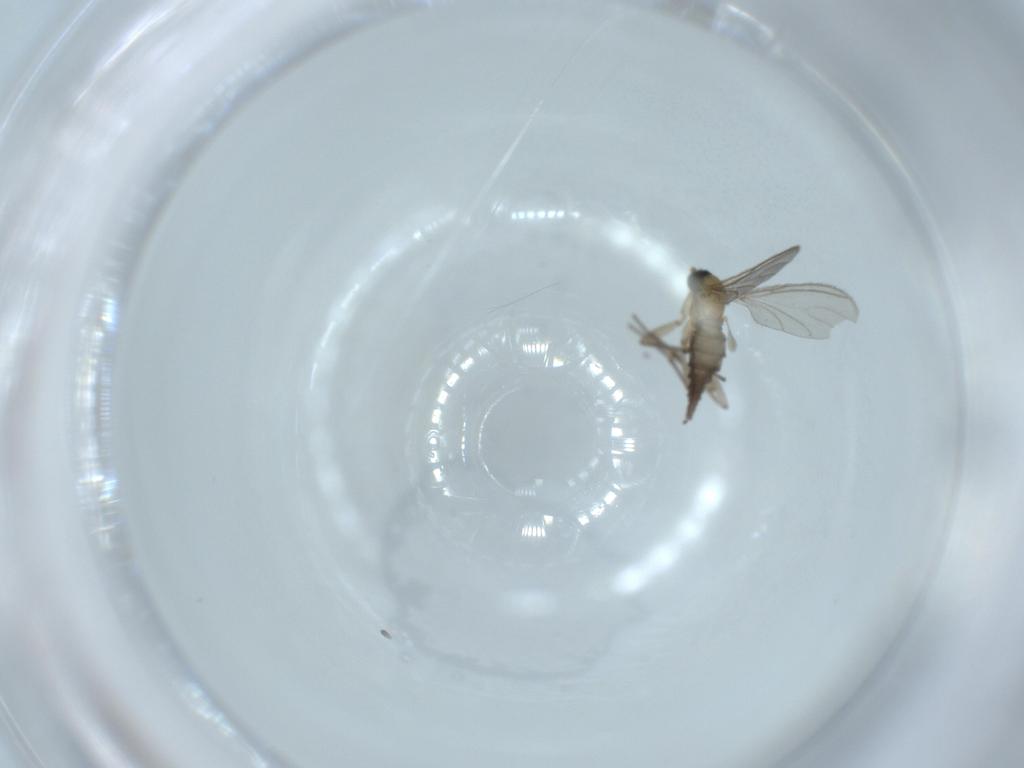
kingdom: Animalia
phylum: Arthropoda
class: Insecta
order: Diptera
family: Sciaridae
